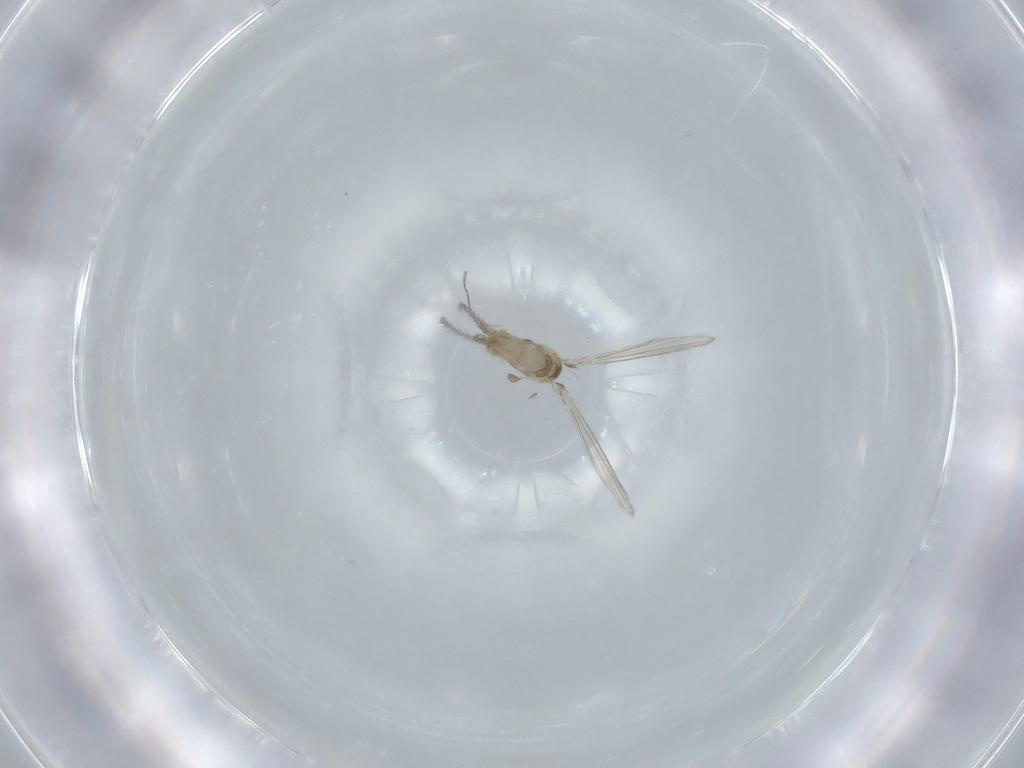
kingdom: Animalia
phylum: Arthropoda
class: Insecta
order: Diptera
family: Psychodidae
